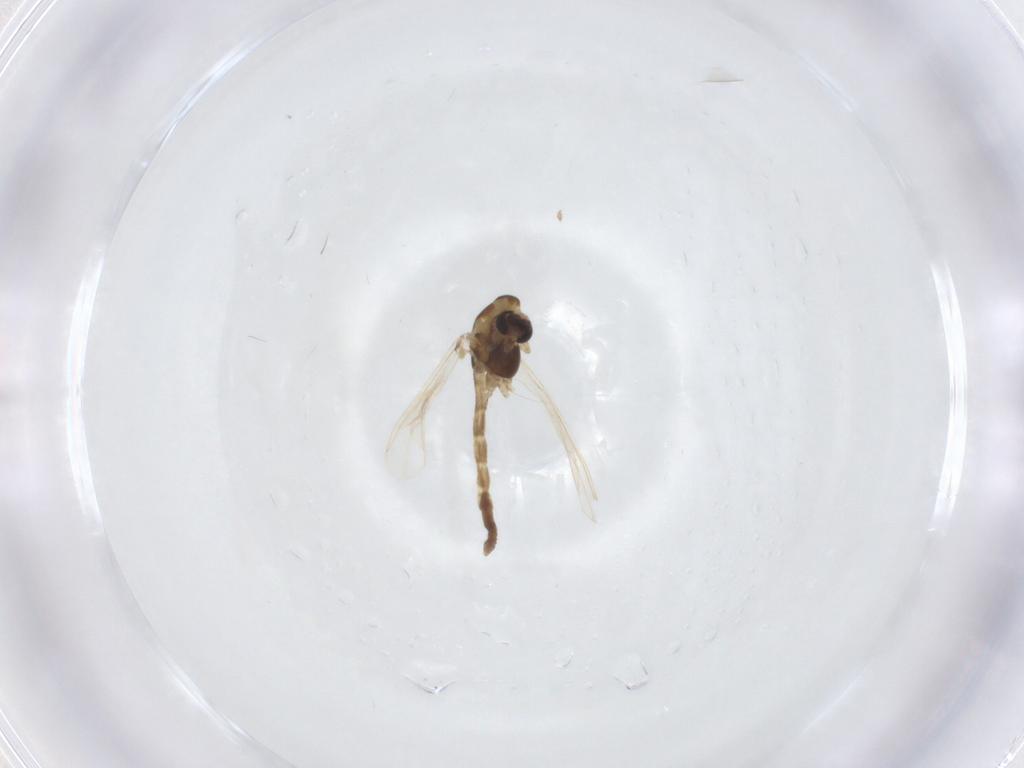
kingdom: Animalia
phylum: Arthropoda
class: Insecta
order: Diptera
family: Chironomidae
